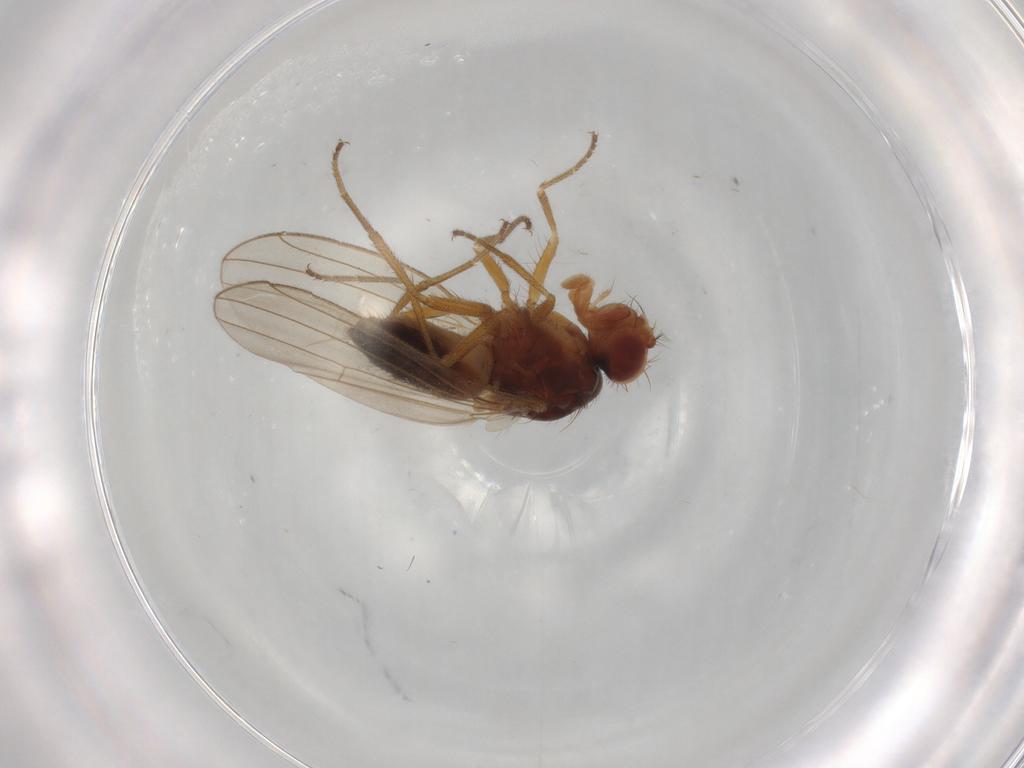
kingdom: Animalia
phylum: Arthropoda
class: Insecta
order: Diptera
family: Drosophilidae
